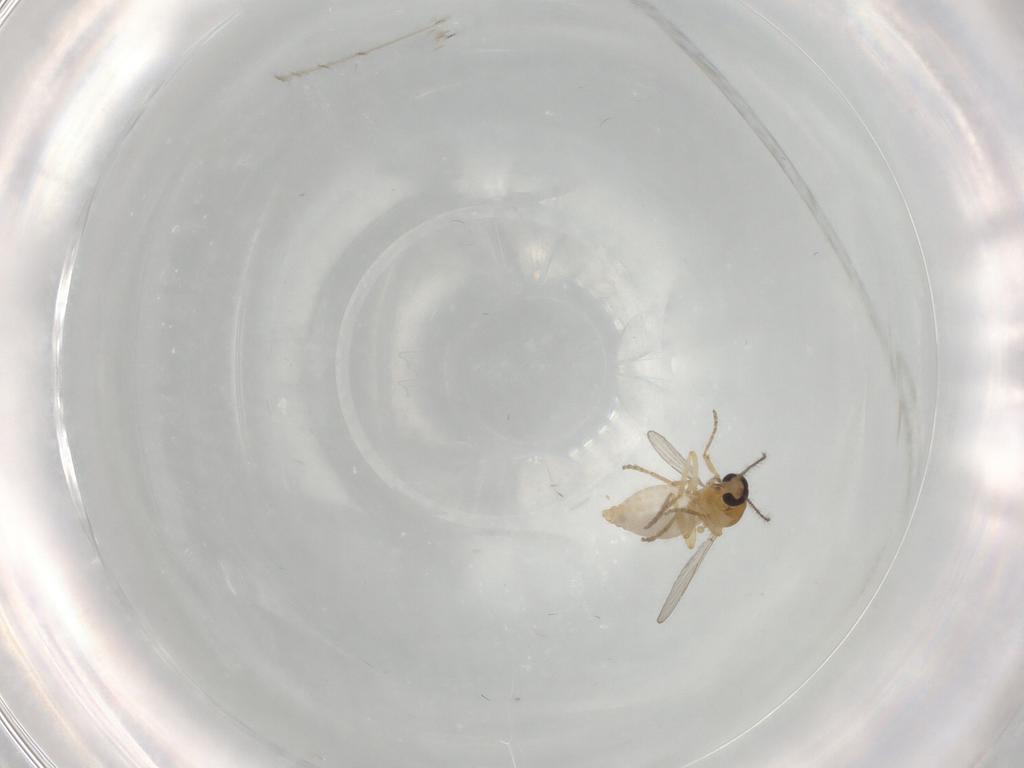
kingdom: Animalia
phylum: Arthropoda
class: Insecta
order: Diptera
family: Ceratopogonidae
